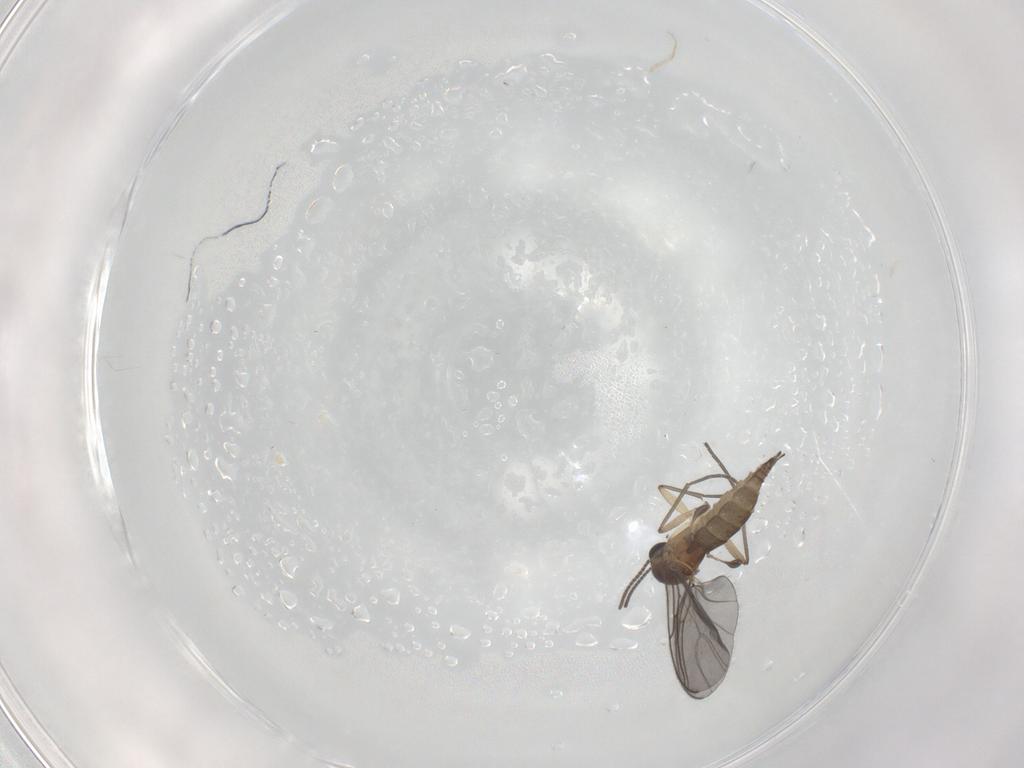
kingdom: Animalia
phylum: Arthropoda
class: Insecta
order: Diptera
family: Sciaridae
